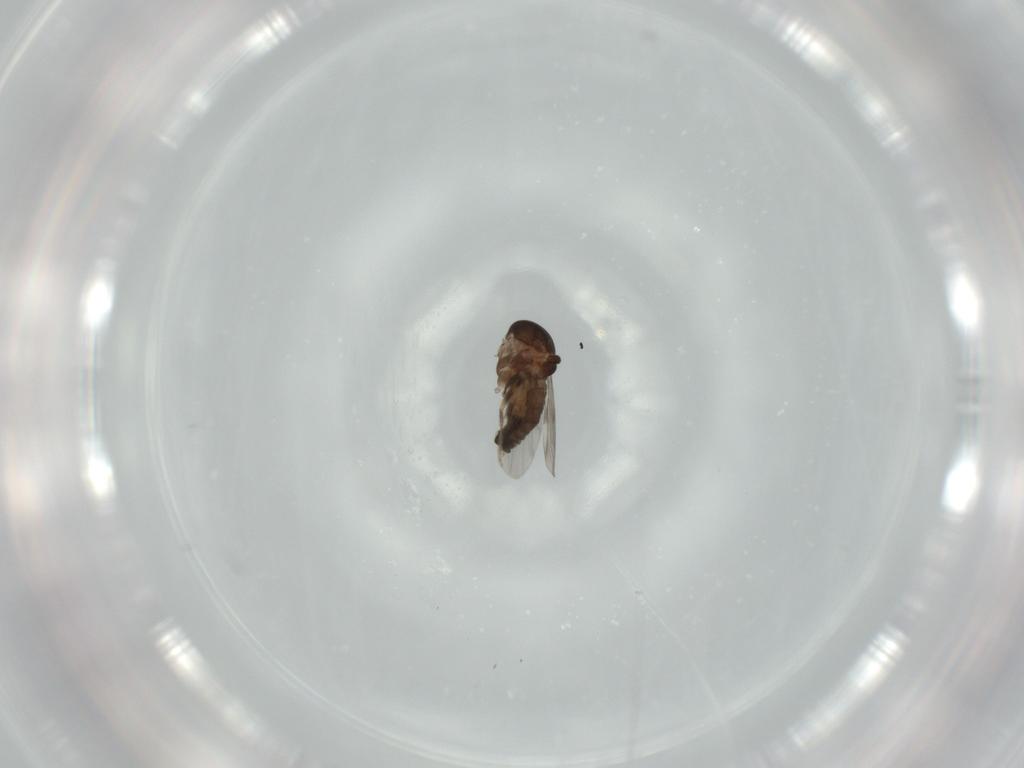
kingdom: Animalia
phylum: Arthropoda
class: Insecta
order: Diptera
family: Ceratopogonidae
